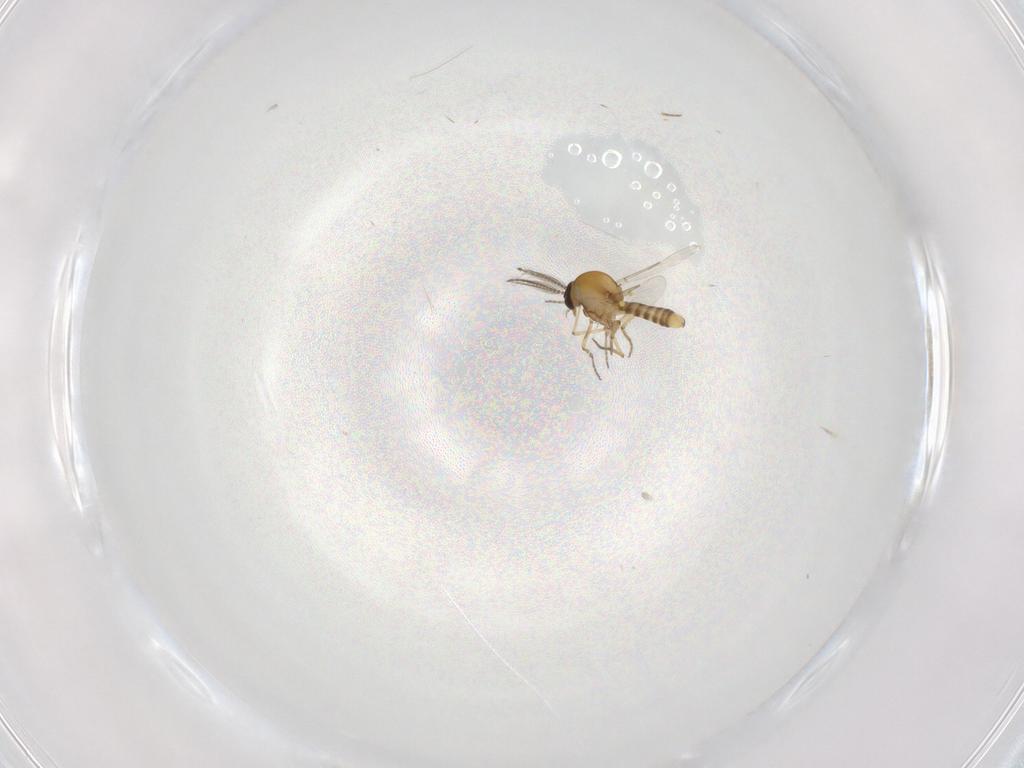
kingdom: Animalia
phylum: Arthropoda
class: Insecta
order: Diptera
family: Ceratopogonidae
